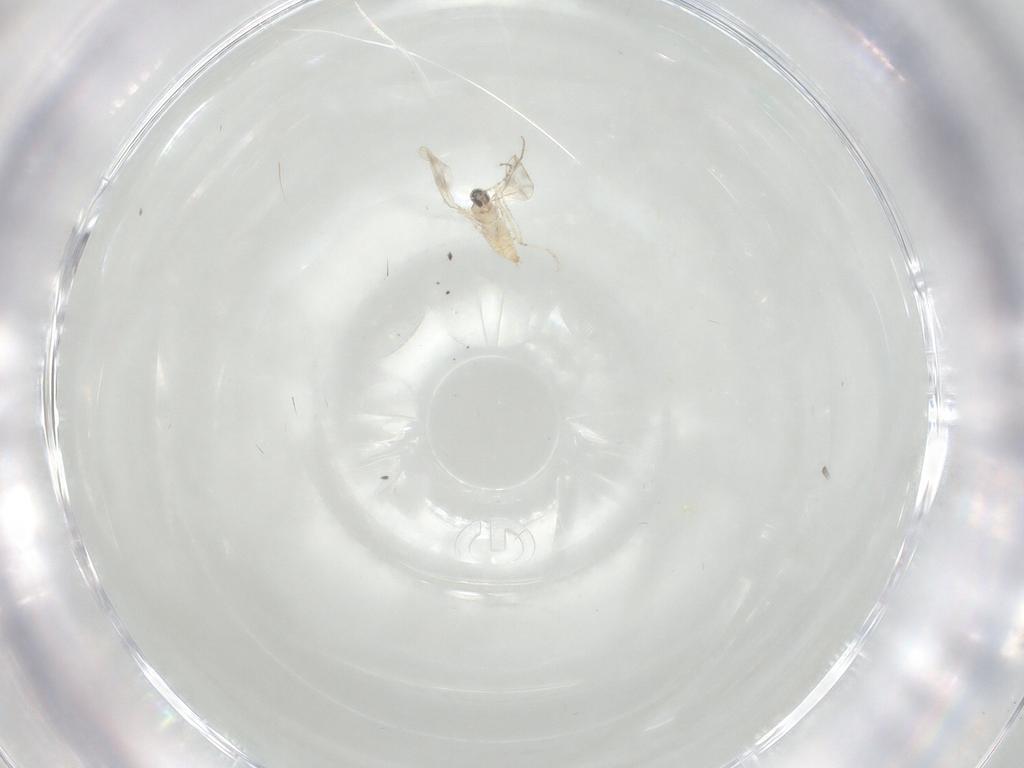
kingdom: Animalia
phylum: Arthropoda
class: Insecta
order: Diptera
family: Cecidomyiidae
